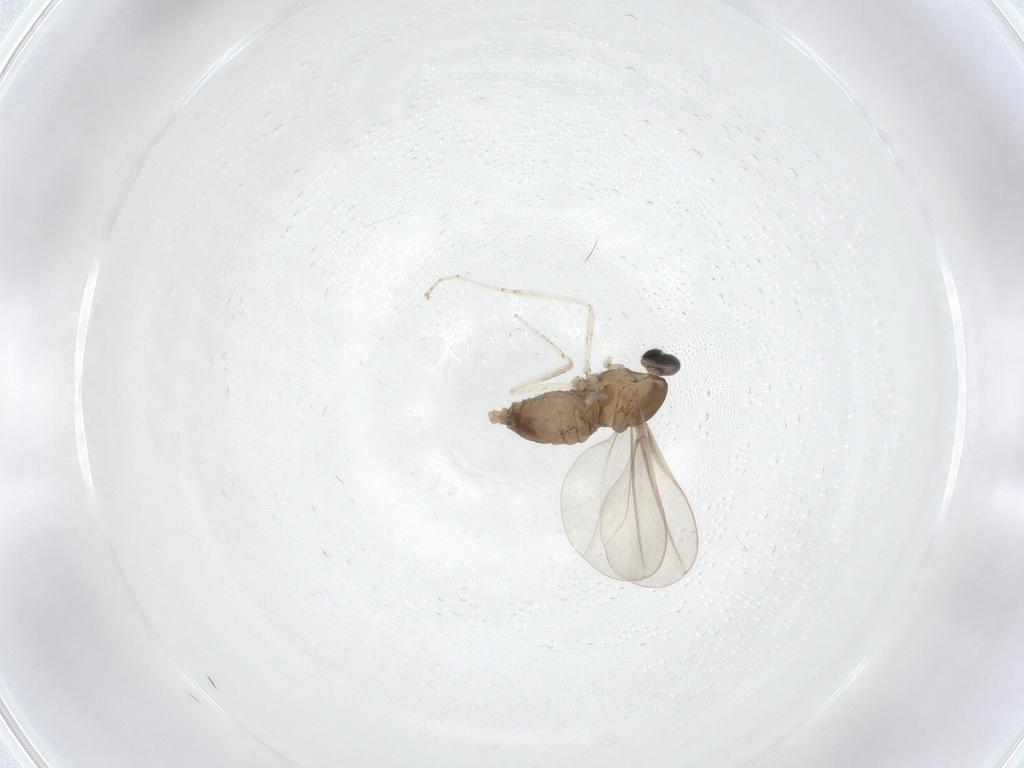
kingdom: Animalia
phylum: Arthropoda
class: Insecta
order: Diptera
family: Cecidomyiidae
